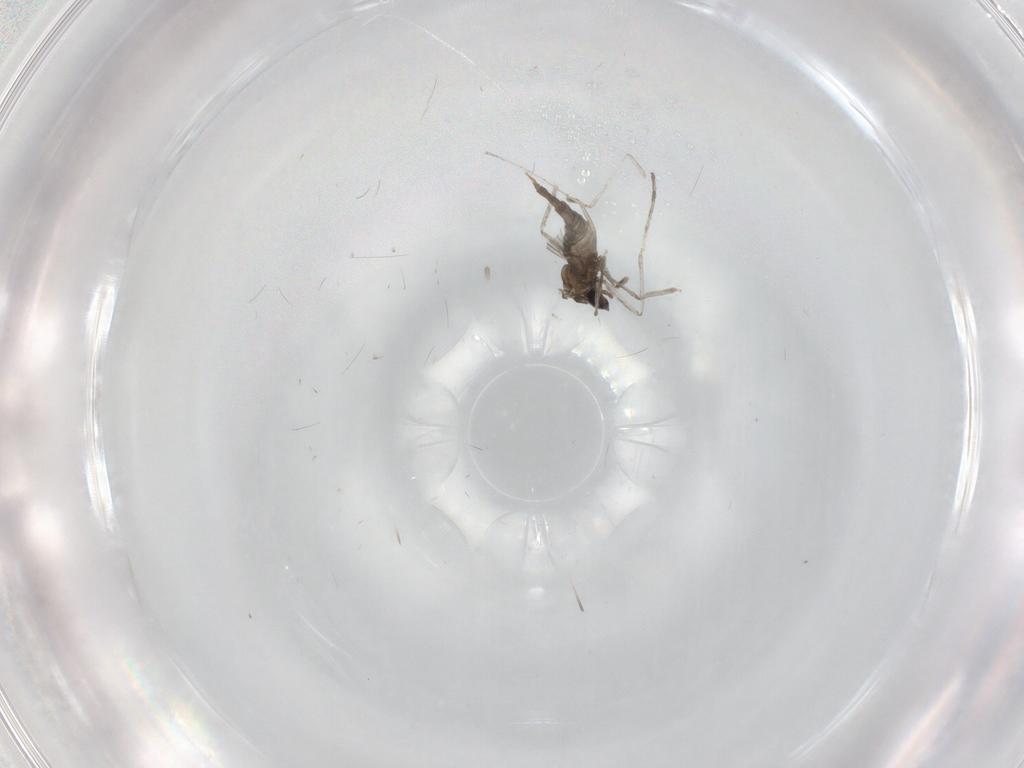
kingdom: Animalia
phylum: Arthropoda
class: Insecta
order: Diptera
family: Cecidomyiidae
